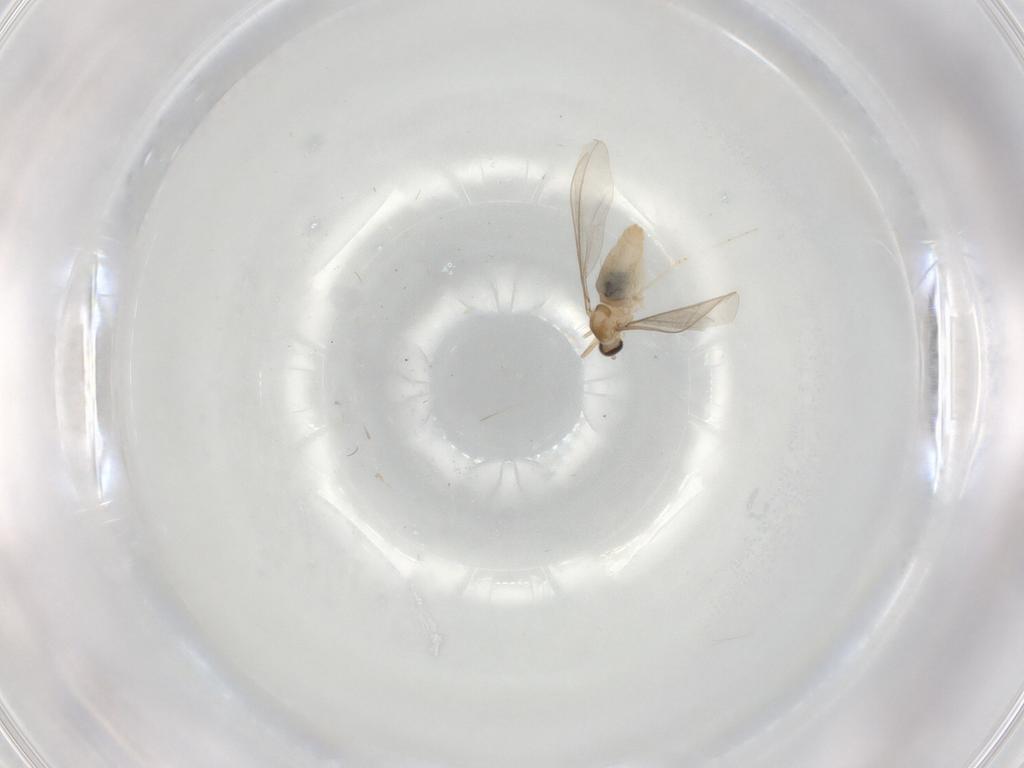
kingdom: Animalia
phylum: Arthropoda
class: Insecta
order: Diptera
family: Cecidomyiidae
